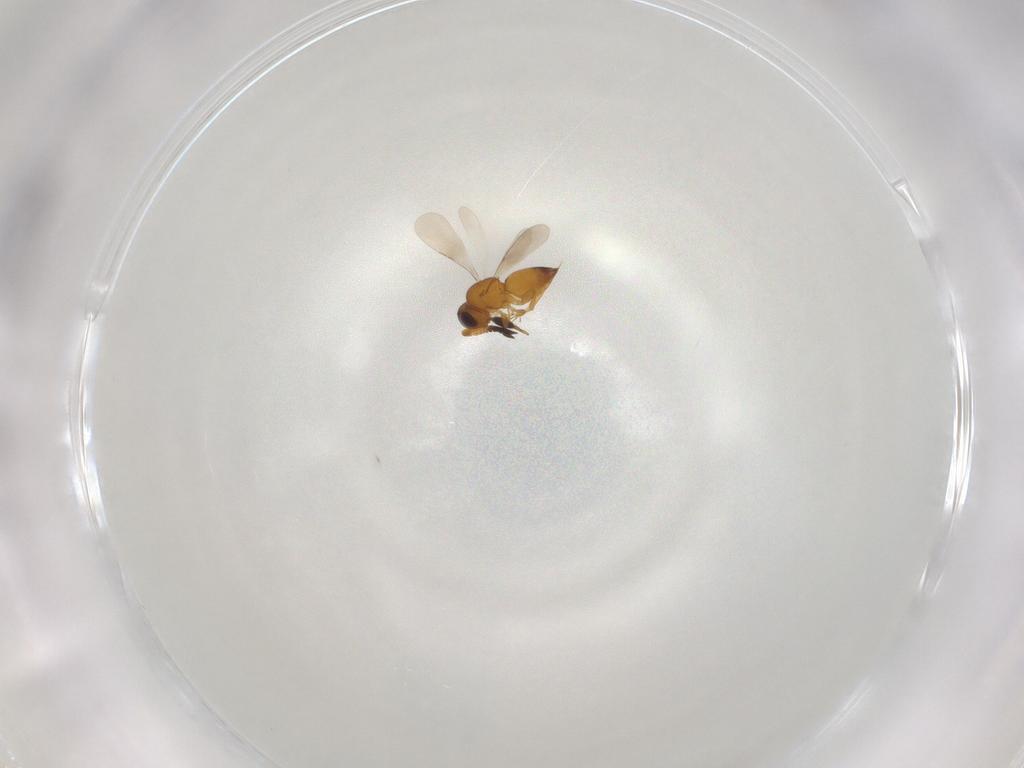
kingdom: Animalia
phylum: Arthropoda
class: Insecta
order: Hymenoptera
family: Mymaridae
